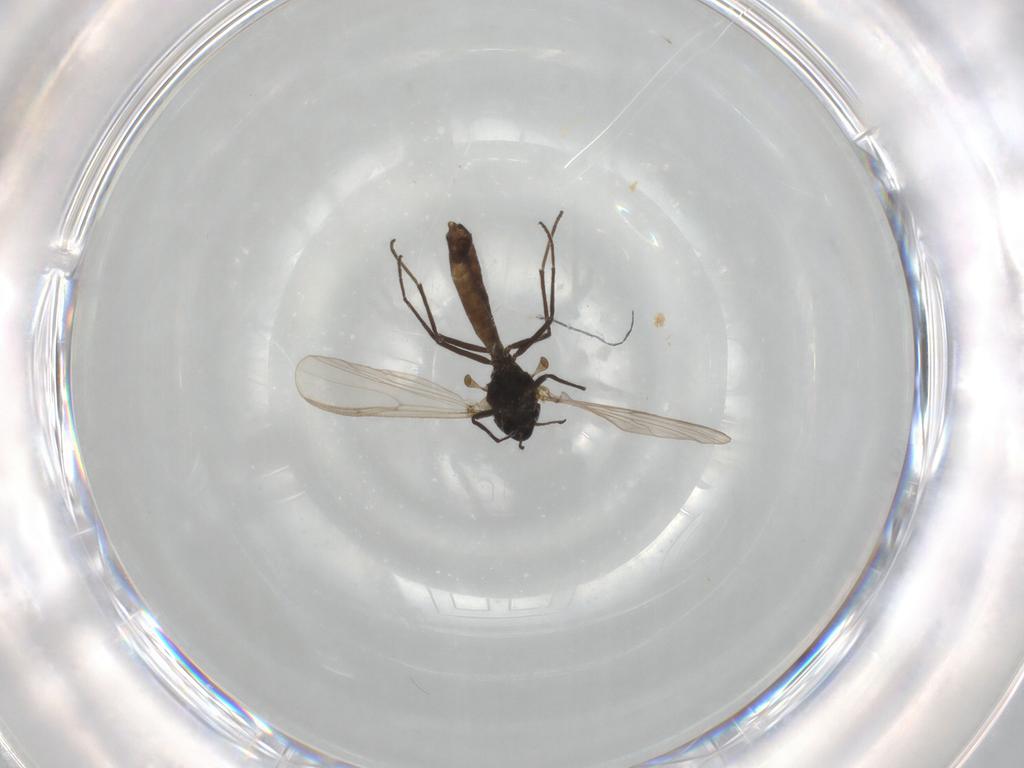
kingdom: Animalia
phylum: Arthropoda
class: Insecta
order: Diptera
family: Chironomidae
